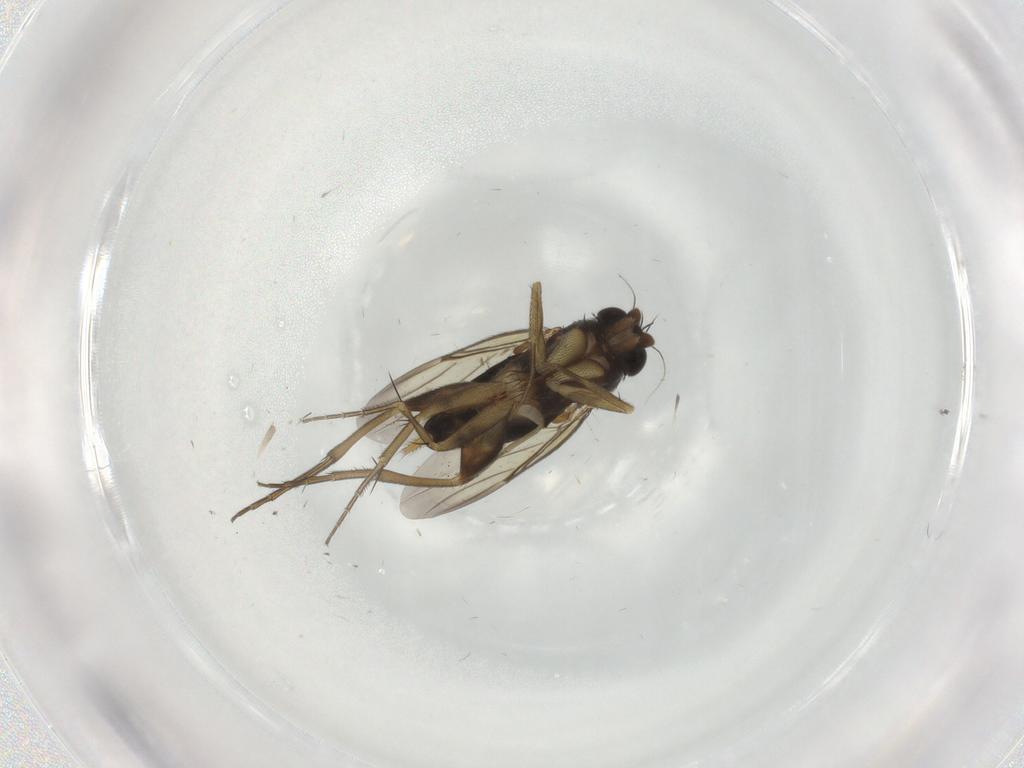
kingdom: Animalia
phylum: Arthropoda
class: Insecta
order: Diptera
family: Phoridae
